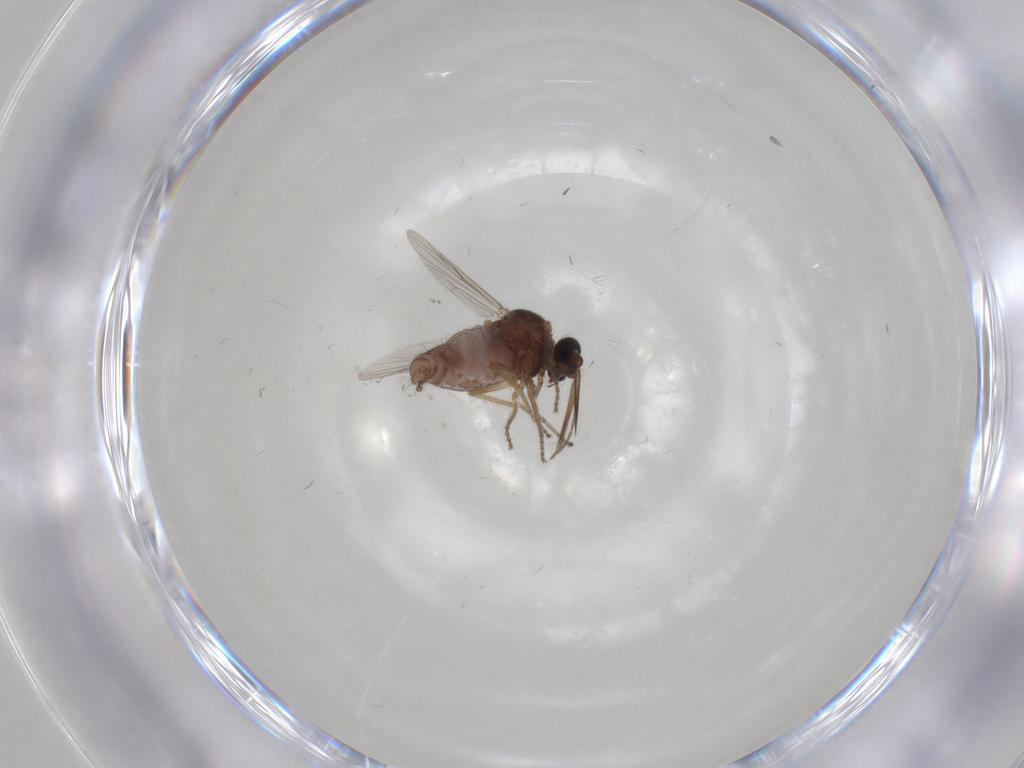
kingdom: Animalia
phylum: Arthropoda
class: Insecta
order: Diptera
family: Ceratopogonidae
